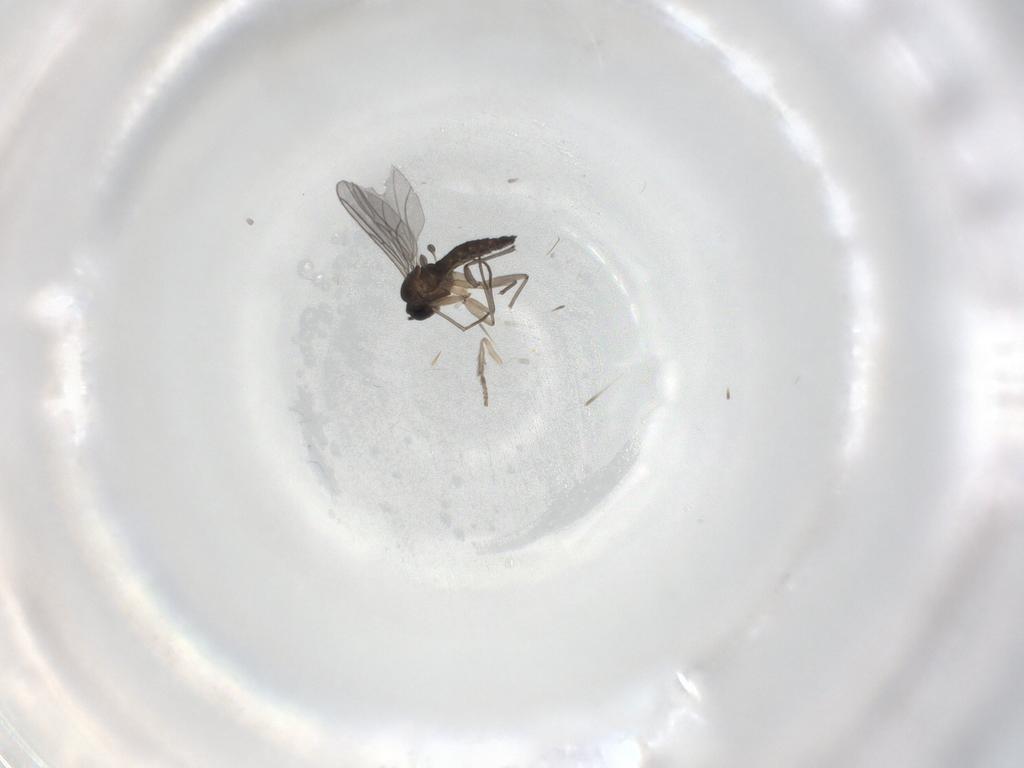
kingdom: Animalia
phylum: Arthropoda
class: Insecta
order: Diptera
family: Sciaridae
